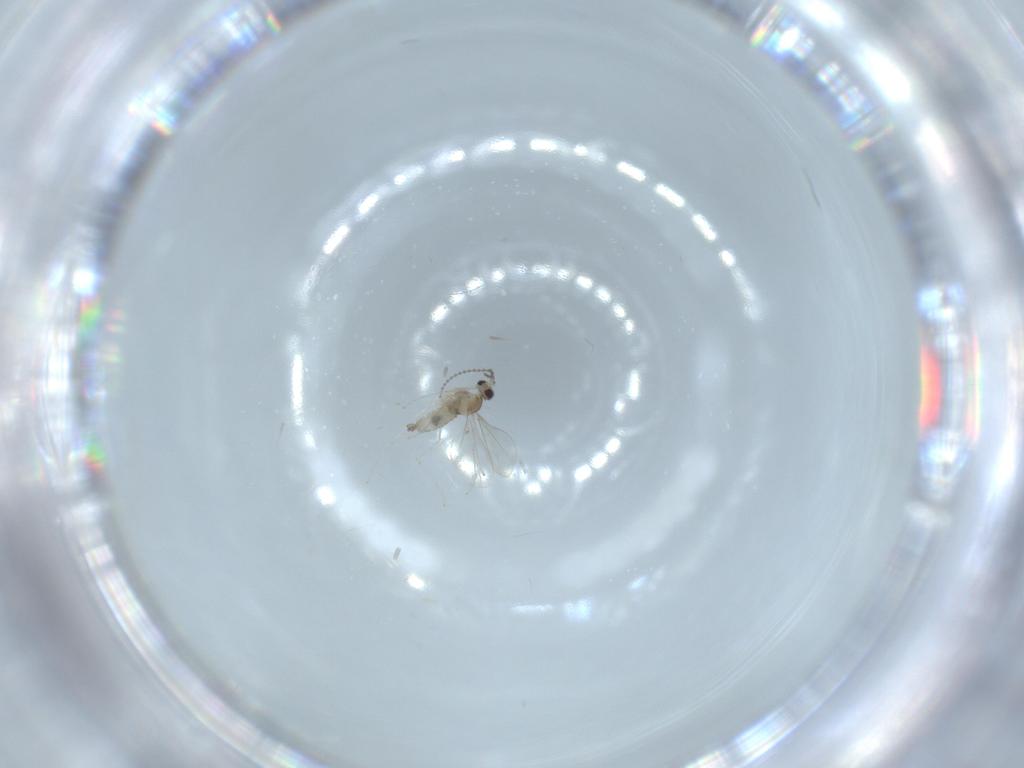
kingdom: Animalia
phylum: Arthropoda
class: Insecta
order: Diptera
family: Cecidomyiidae
